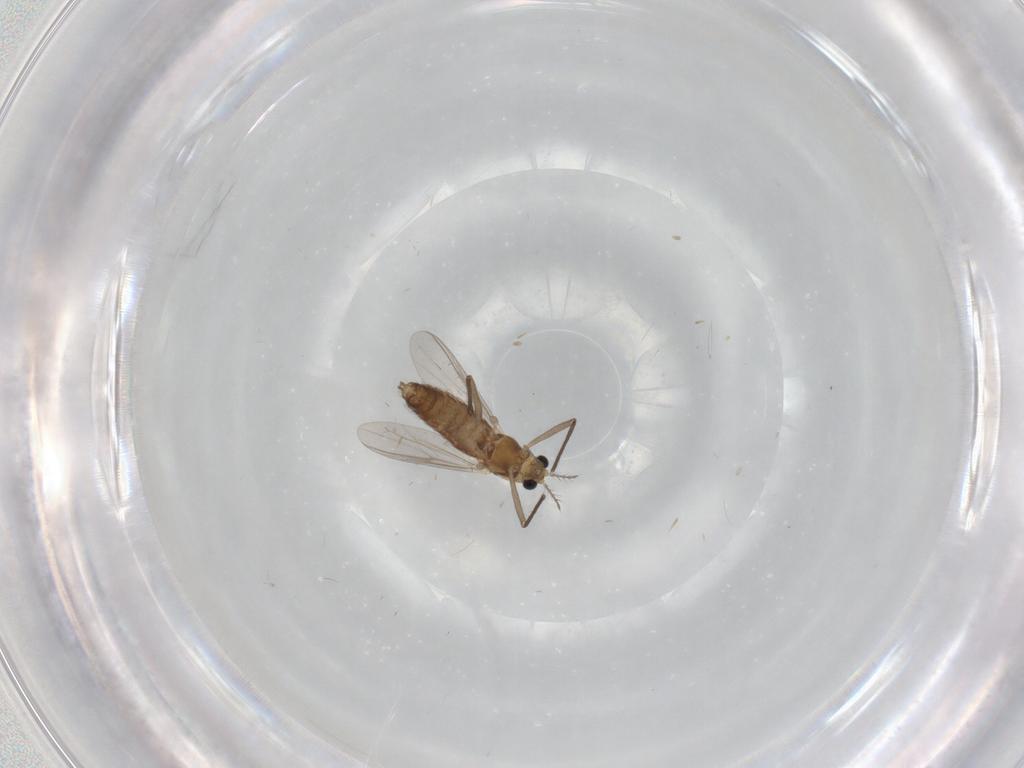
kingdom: Animalia
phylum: Arthropoda
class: Insecta
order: Diptera
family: Chironomidae
